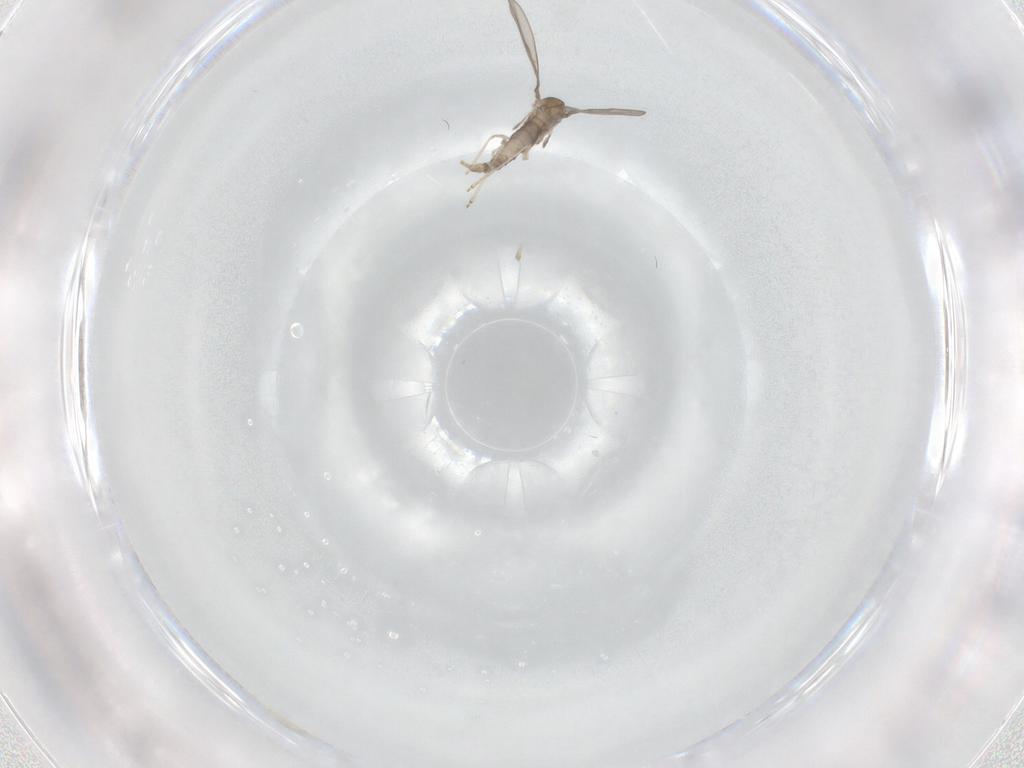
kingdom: Animalia
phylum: Arthropoda
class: Insecta
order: Diptera
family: Cecidomyiidae
